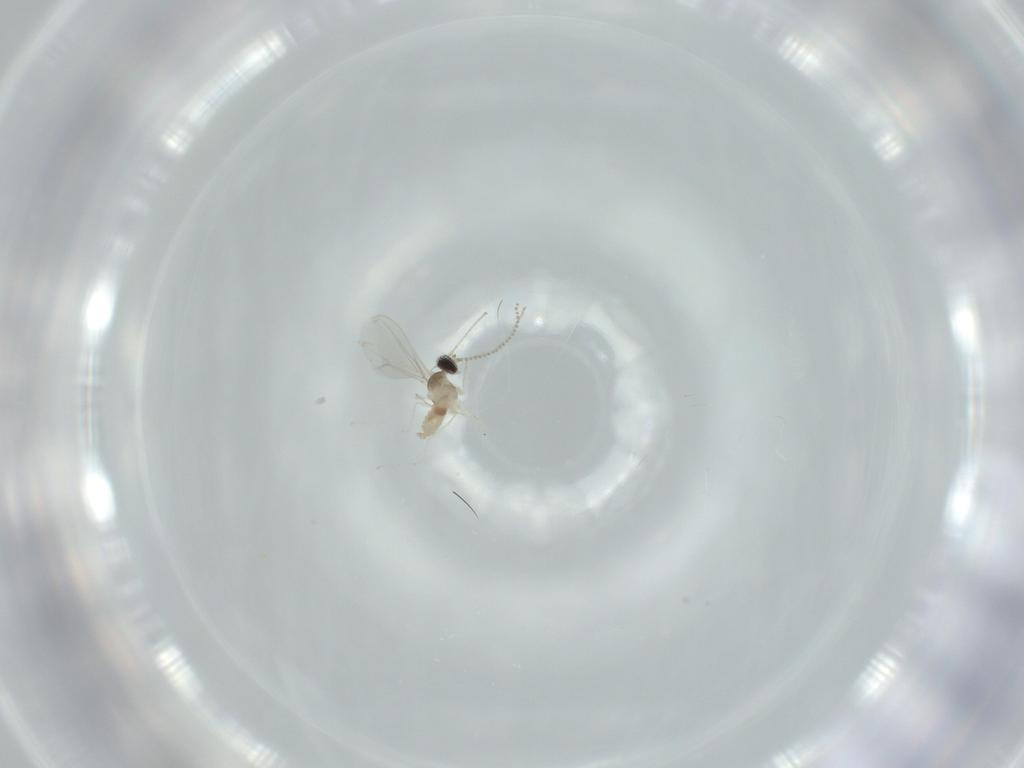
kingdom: Animalia
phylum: Arthropoda
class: Insecta
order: Diptera
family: Cecidomyiidae
